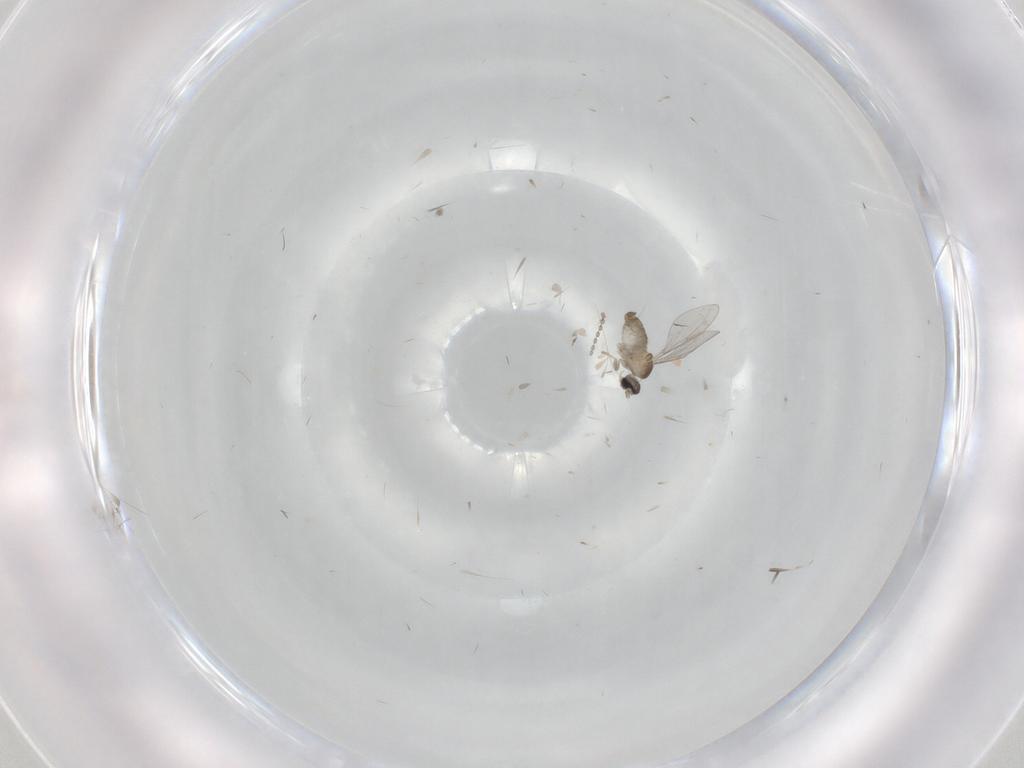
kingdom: Animalia
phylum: Arthropoda
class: Insecta
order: Diptera
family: Cecidomyiidae
